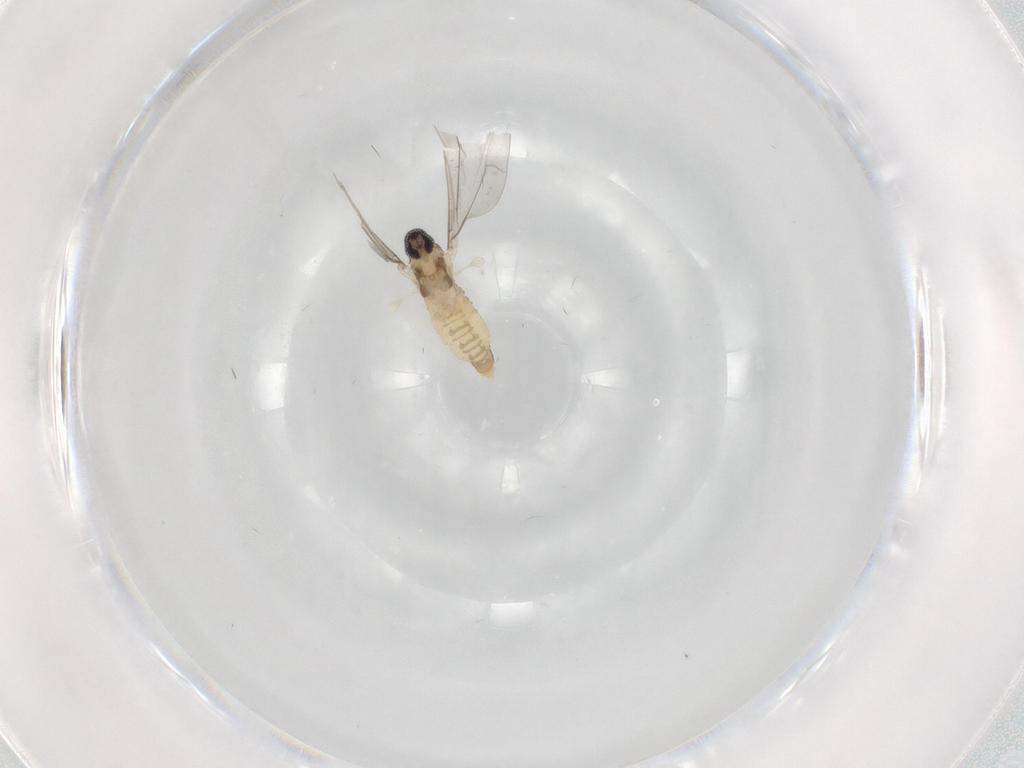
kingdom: Animalia
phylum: Arthropoda
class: Insecta
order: Diptera
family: Phoridae
